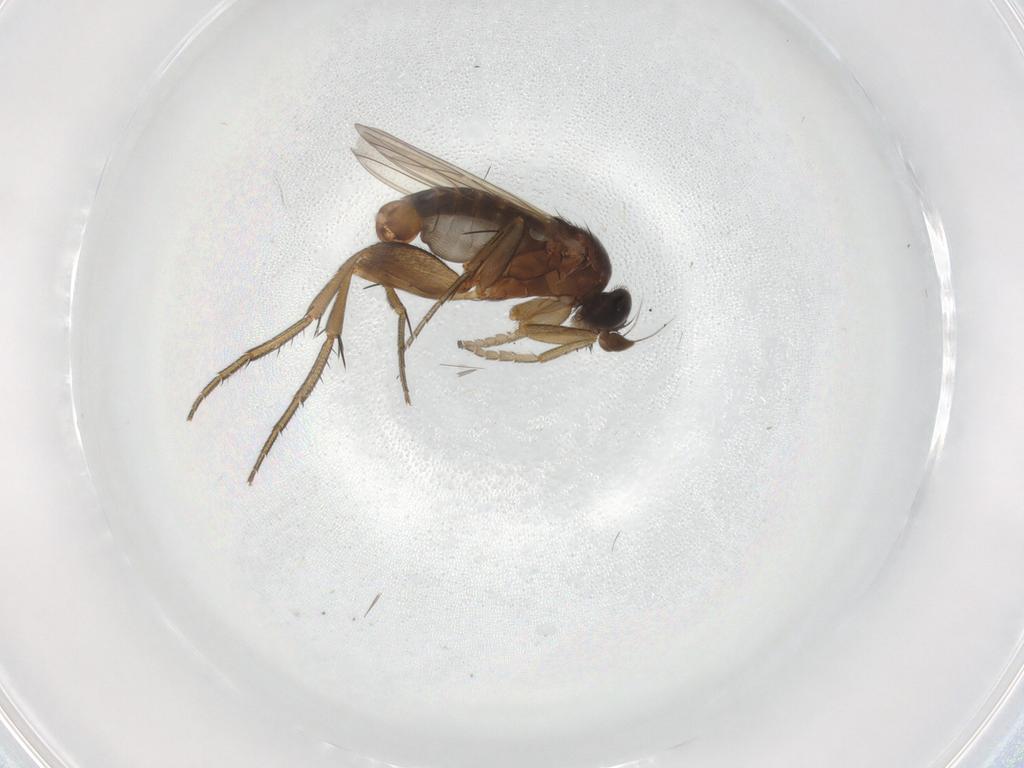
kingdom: Animalia
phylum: Arthropoda
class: Insecta
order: Diptera
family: Phoridae
